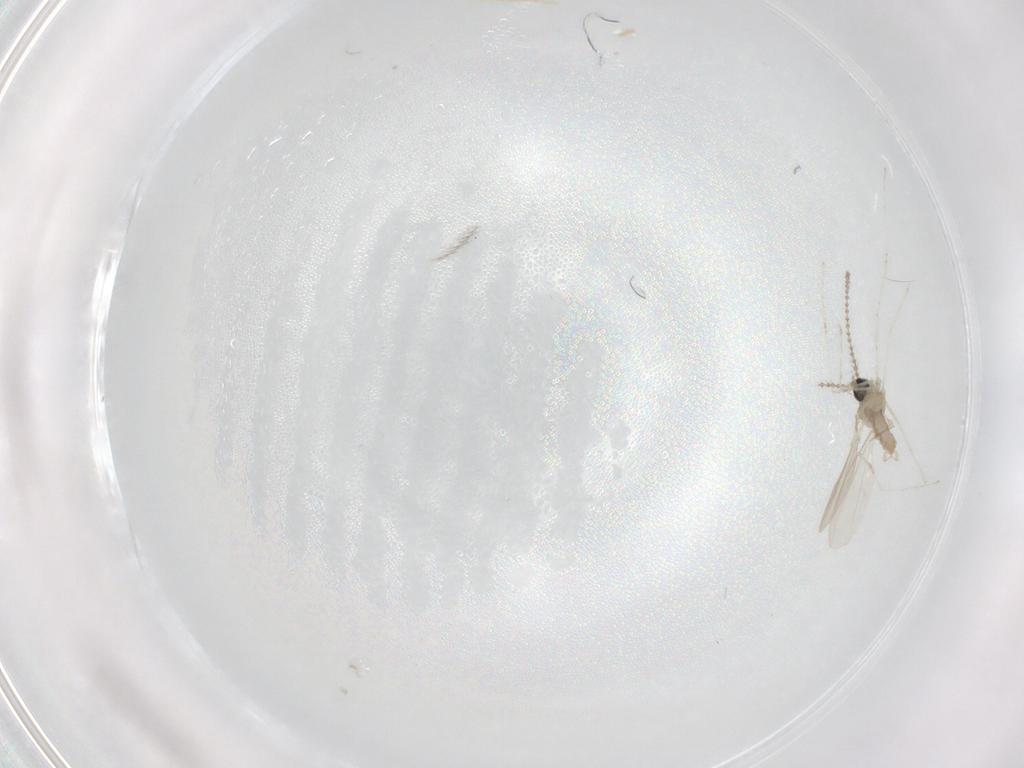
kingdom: Animalia
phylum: Arthropoda
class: Insecta
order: Diptera
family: Cecidomyiidae
